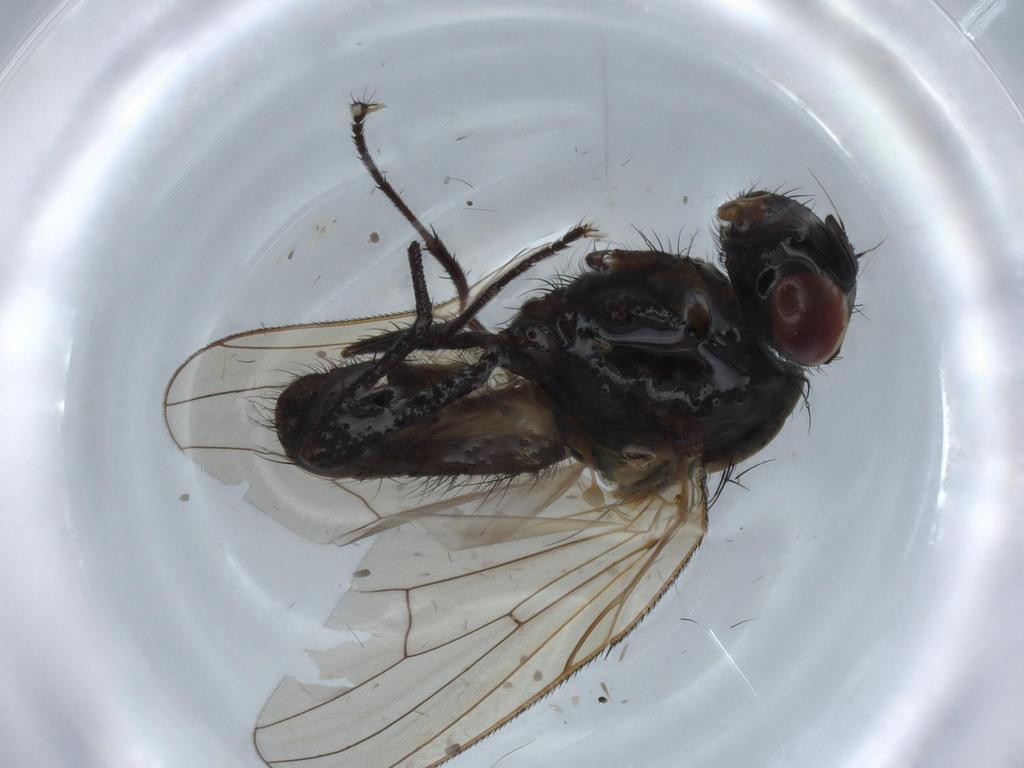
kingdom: Animalia
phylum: Arthropoda
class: Insecta
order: Diptera
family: Anthomyiidae
